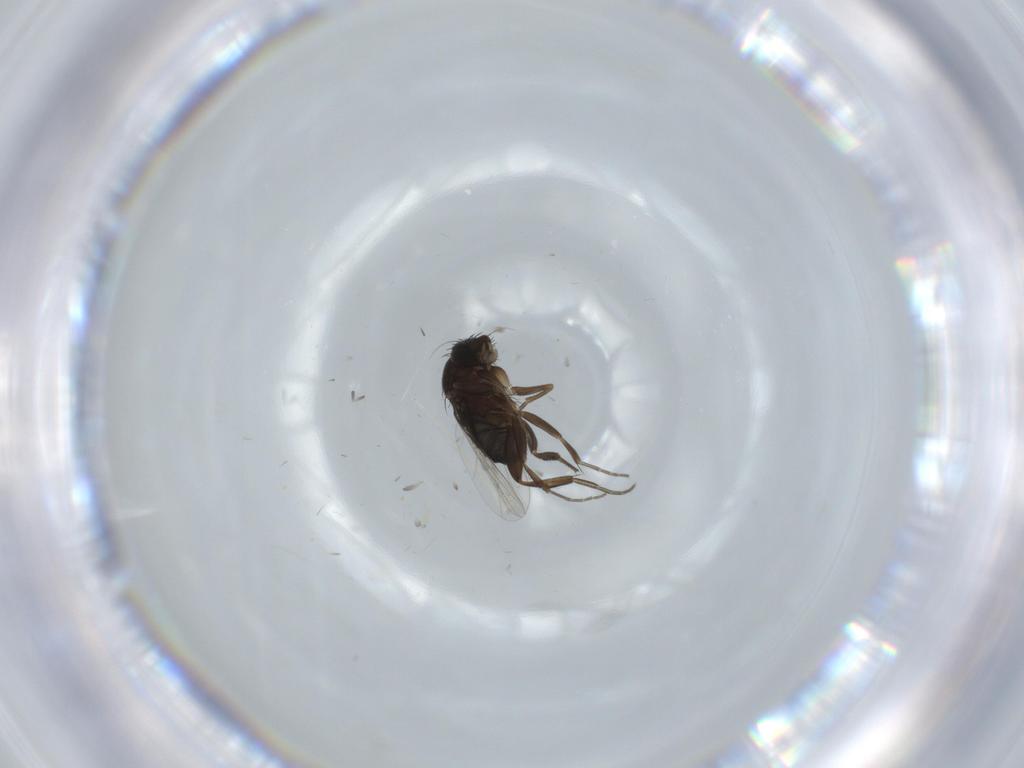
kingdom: Animalia
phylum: Arthropoda
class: Insecta
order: Diptera
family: Phoridae
